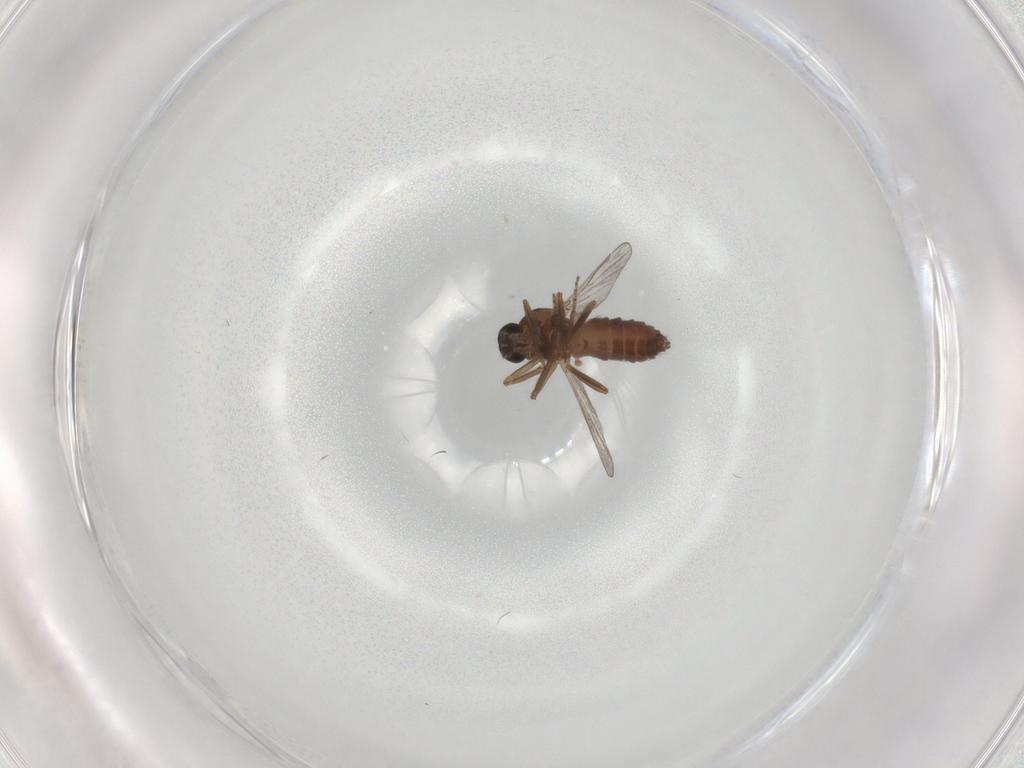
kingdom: Animalia
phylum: Arthropoda
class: Insecta
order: Diptera
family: Ceratopogonidae
